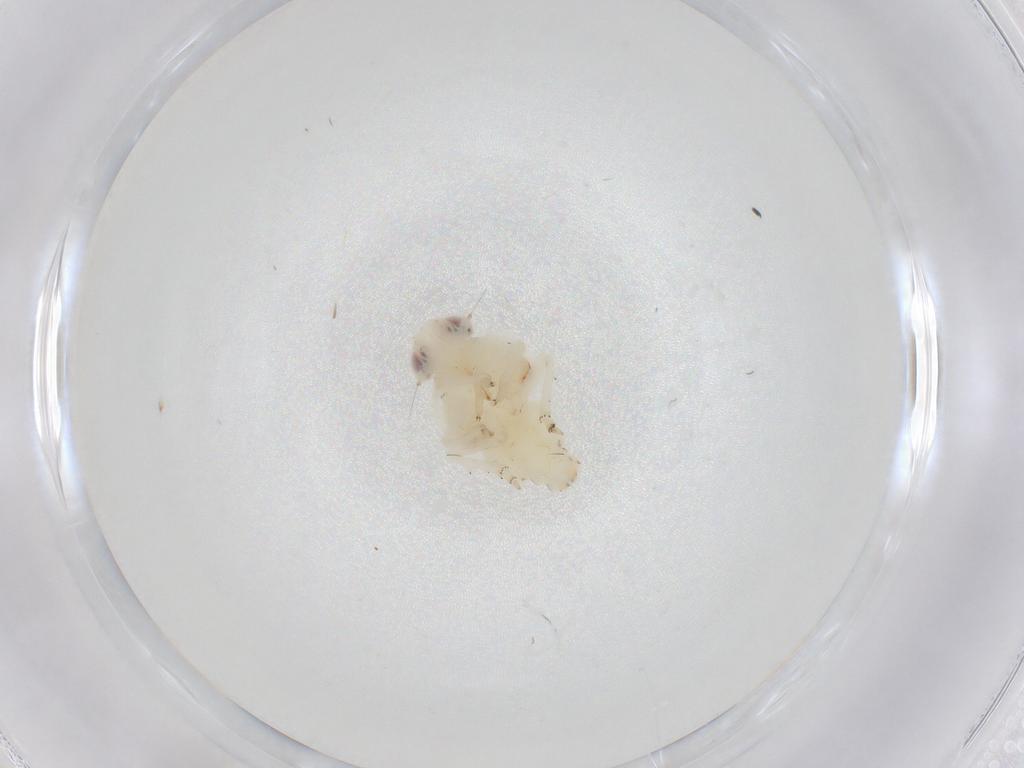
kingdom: Animalia
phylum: Arthropoda
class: Insecta
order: Hemiptera
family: Nogodinidae
